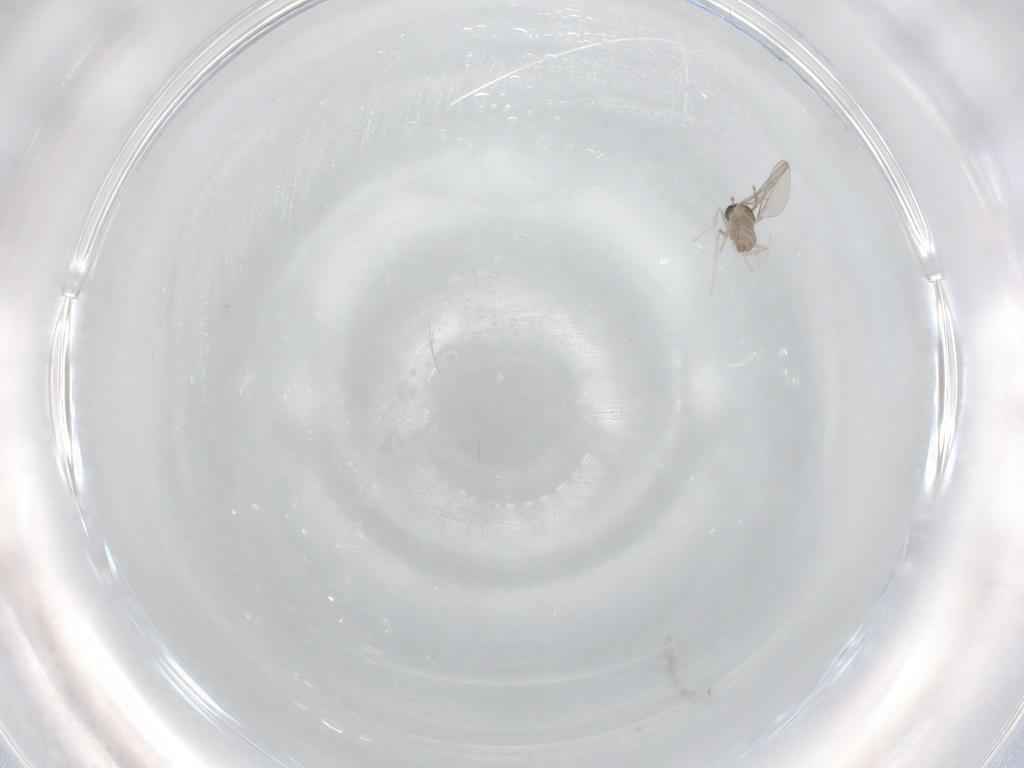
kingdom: Animalia
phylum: Arthropoda
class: Insecta
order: Diptera
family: Cecidomyiidae
